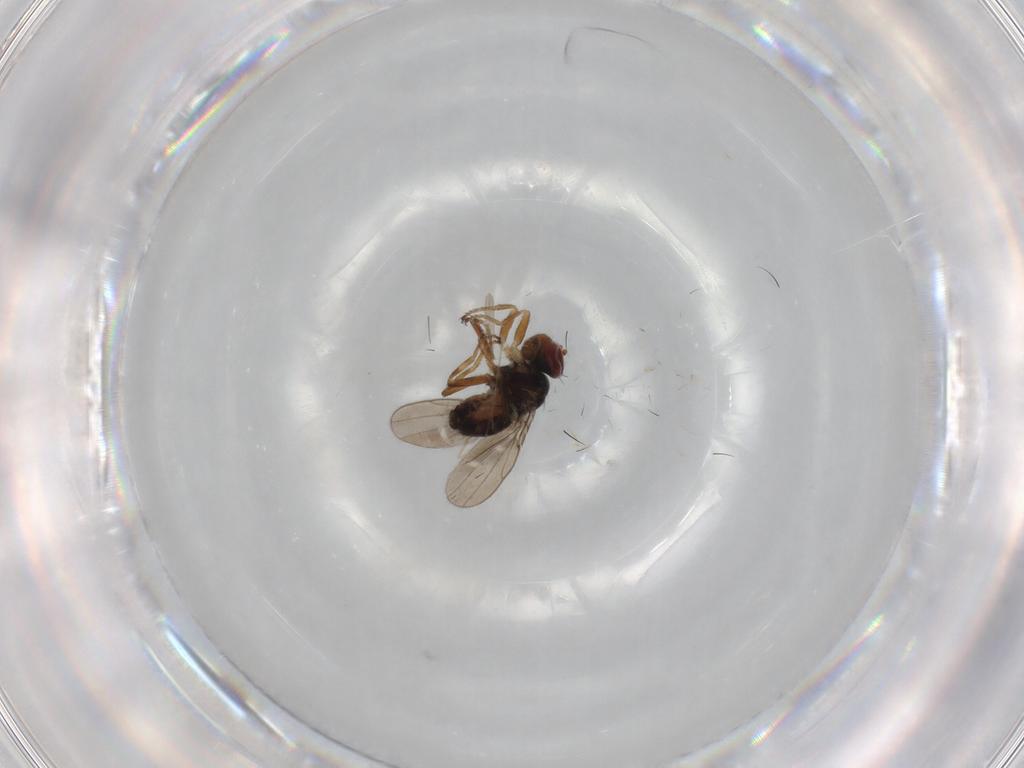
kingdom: Animalia
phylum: Arthropoda
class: Insecta
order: Diptera
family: Ephydridae
